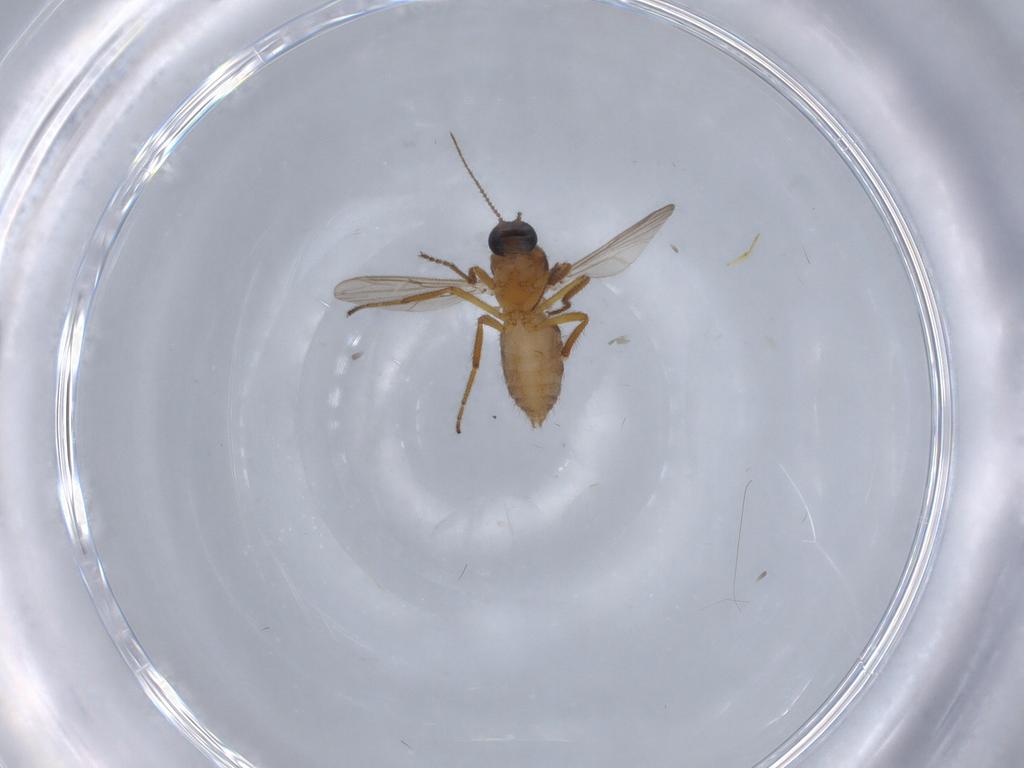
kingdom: Animalia
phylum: Arthropoda
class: Insecta
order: Diptera
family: Ceratopogonidae
